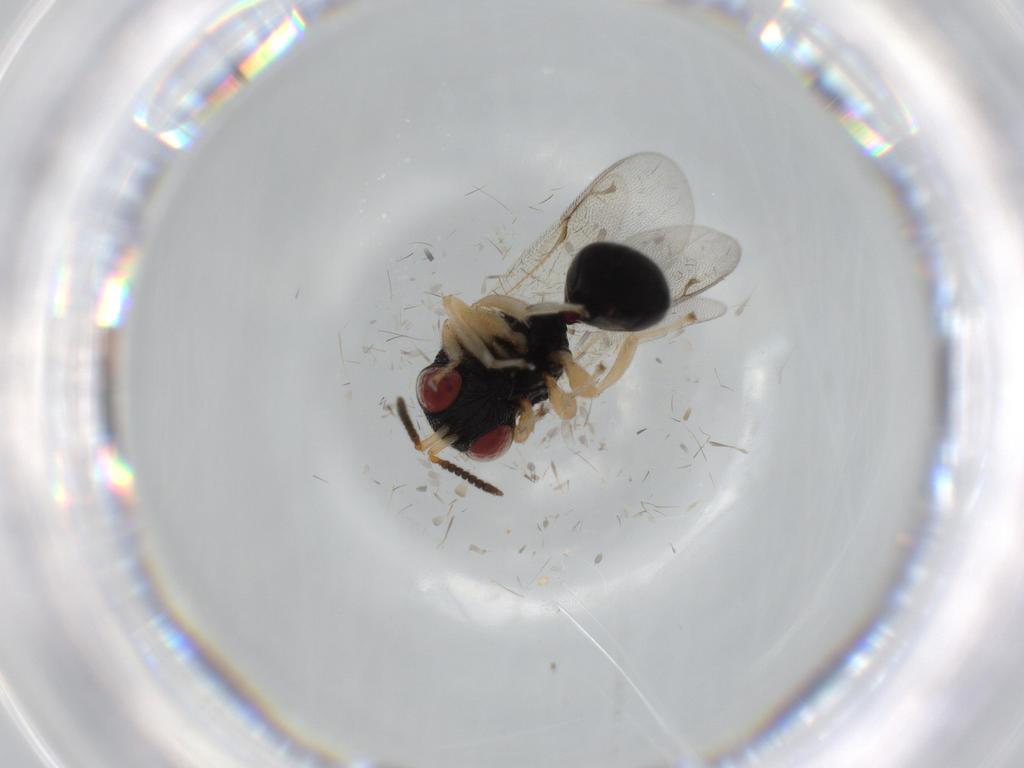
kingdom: Animalia
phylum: Arthropoda
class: Insecta
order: Hymenoptera
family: Eurytomidae
